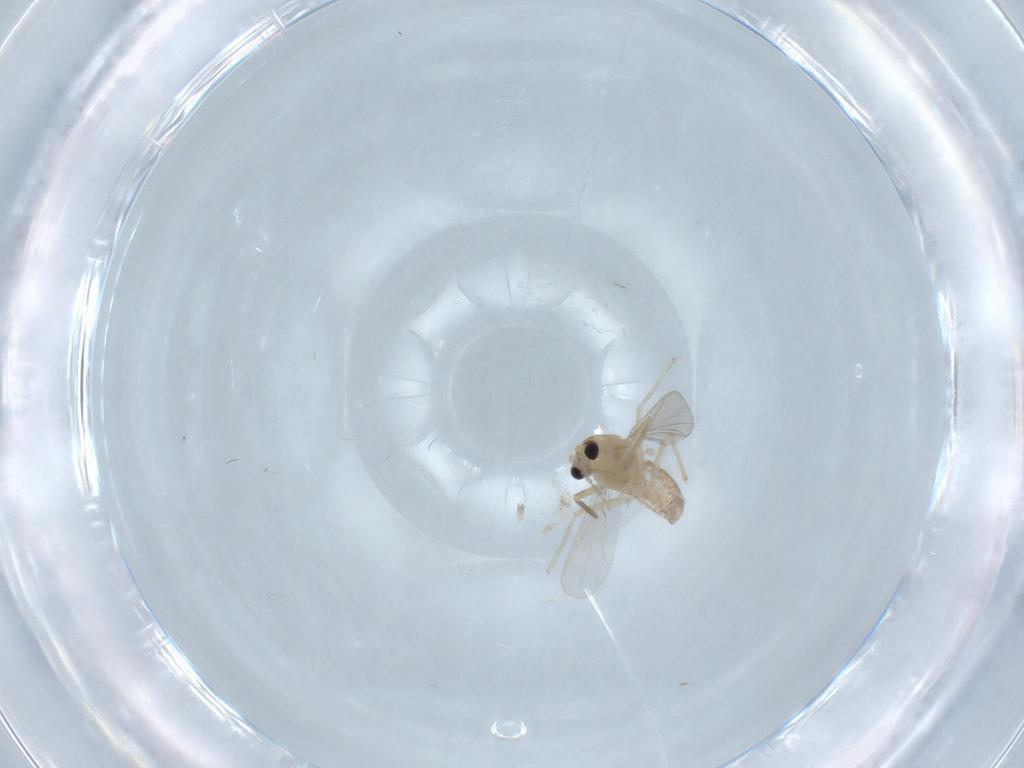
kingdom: Animalia
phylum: Arthropoda
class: Insecta
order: Diptera
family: Chironomidae
